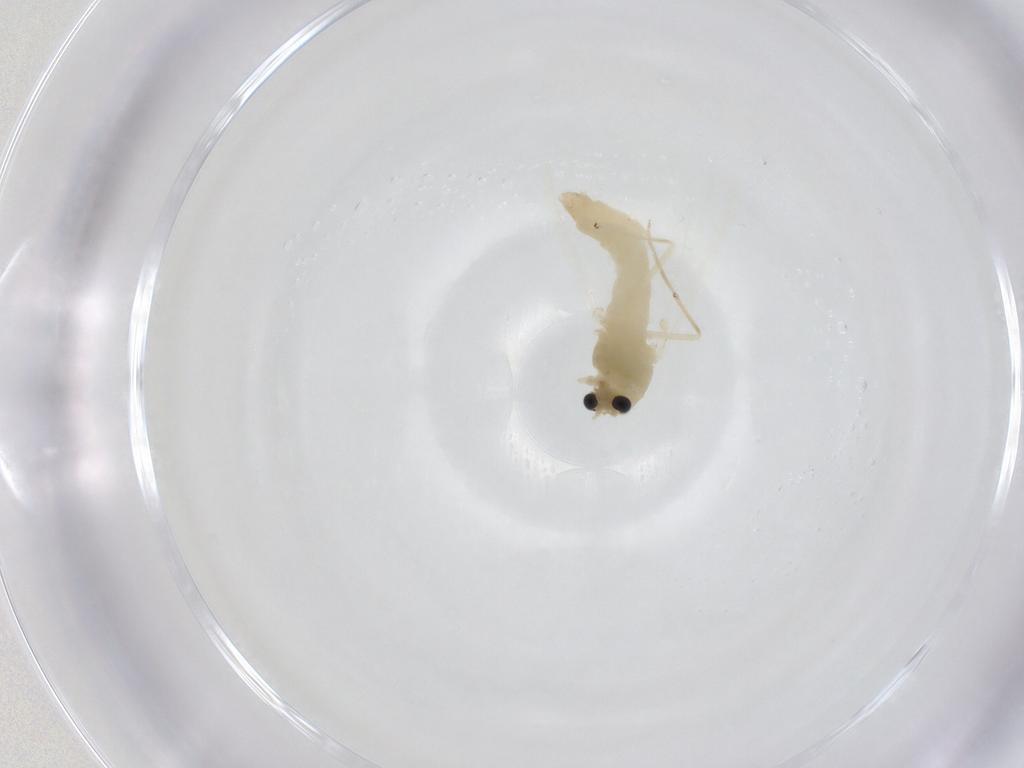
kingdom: Animalia
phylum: Arthropoda
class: Insecta
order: Diptera
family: Chironomidae
